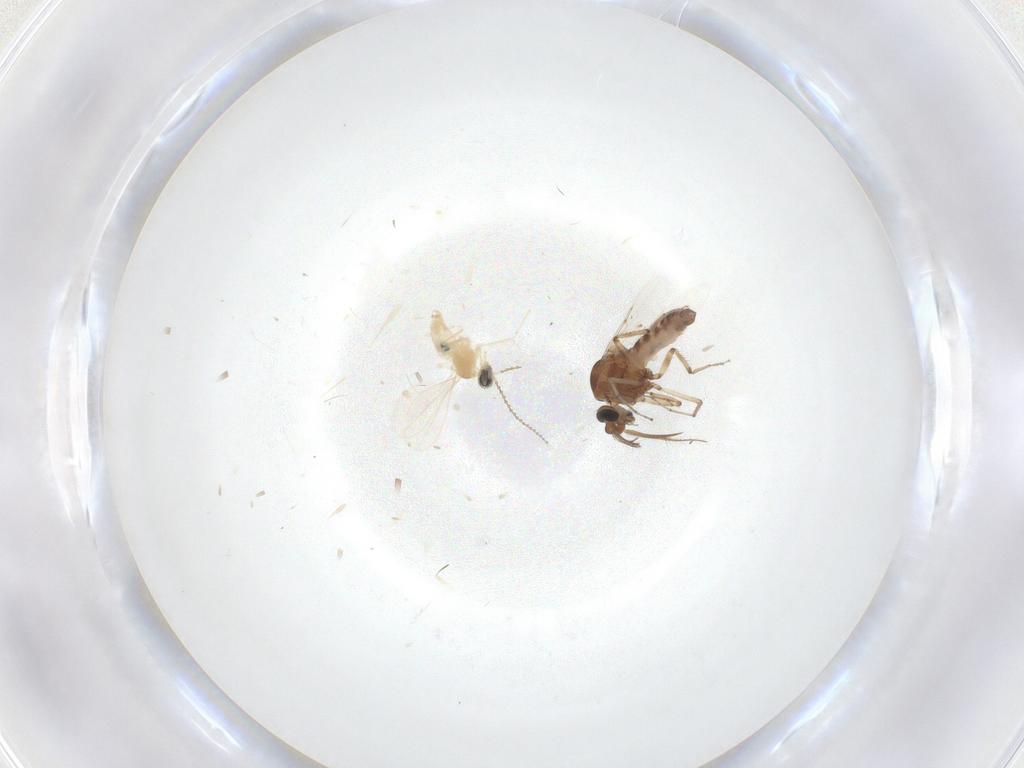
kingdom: Animalia
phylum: Arthropoda
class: Insecta
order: Diptera
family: Ceratopogonidae
